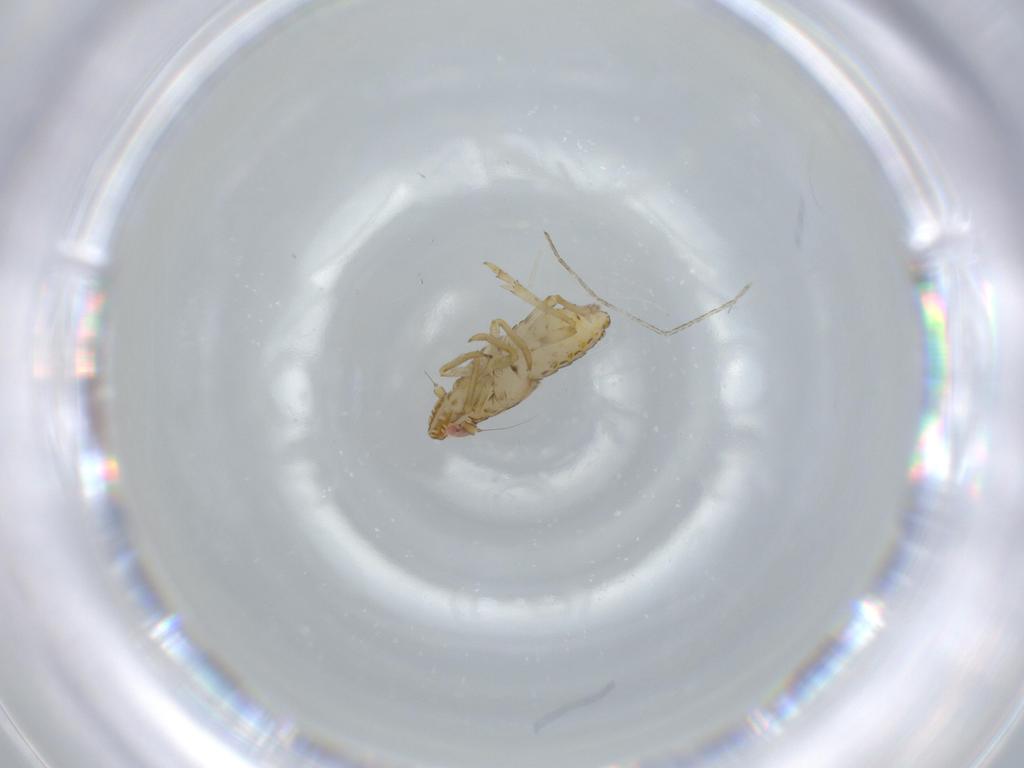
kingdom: Animalia
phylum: Arthropoda
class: Insecta
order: Hemiptera
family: Delphacidae
